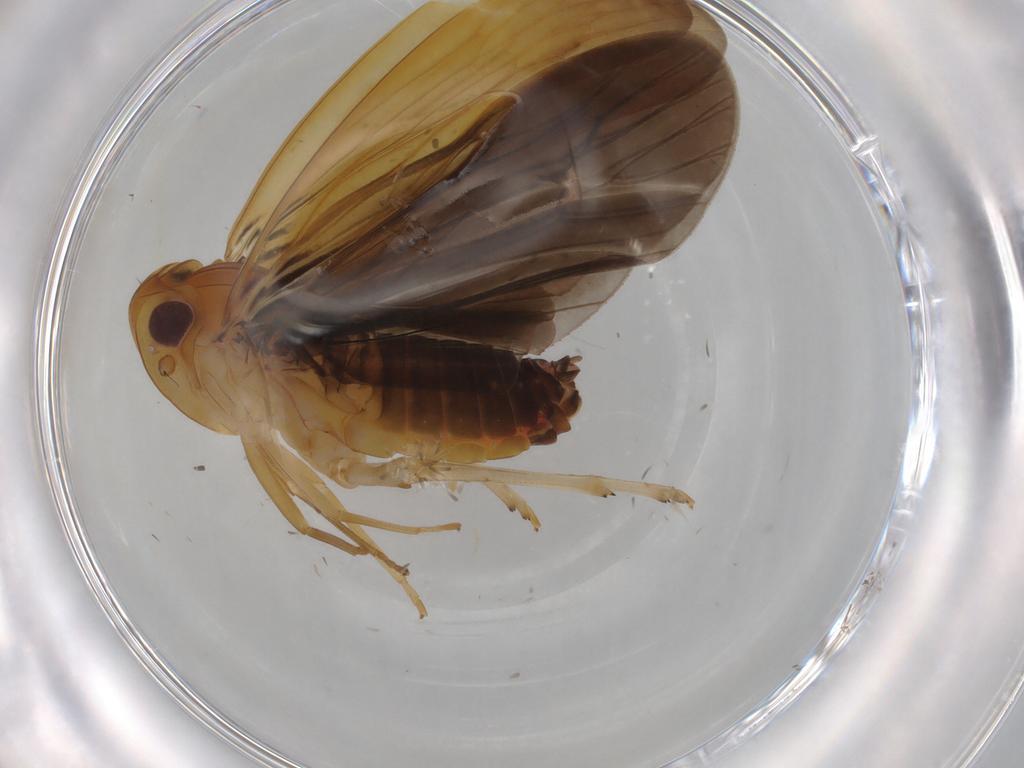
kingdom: Animalia
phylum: Arthropoda
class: Insecta
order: Hemiptera
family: Achilidae
